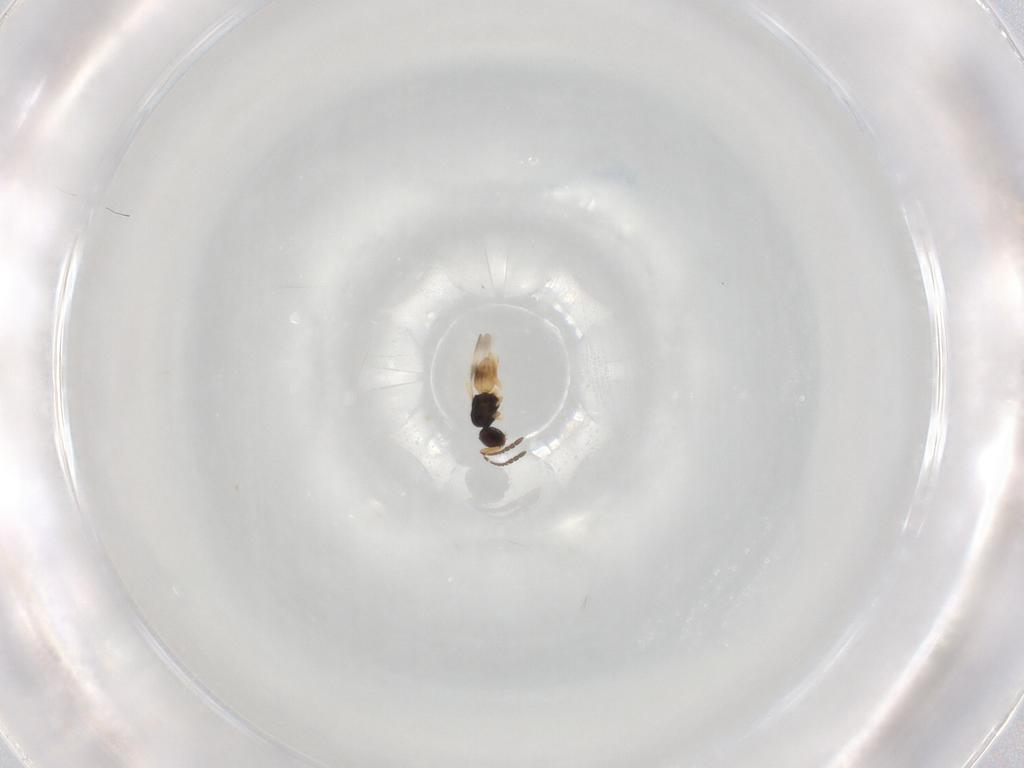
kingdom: Animalia
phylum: Arthropoda
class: Insecta
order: Hymenoptera
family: Ceraphronidae
